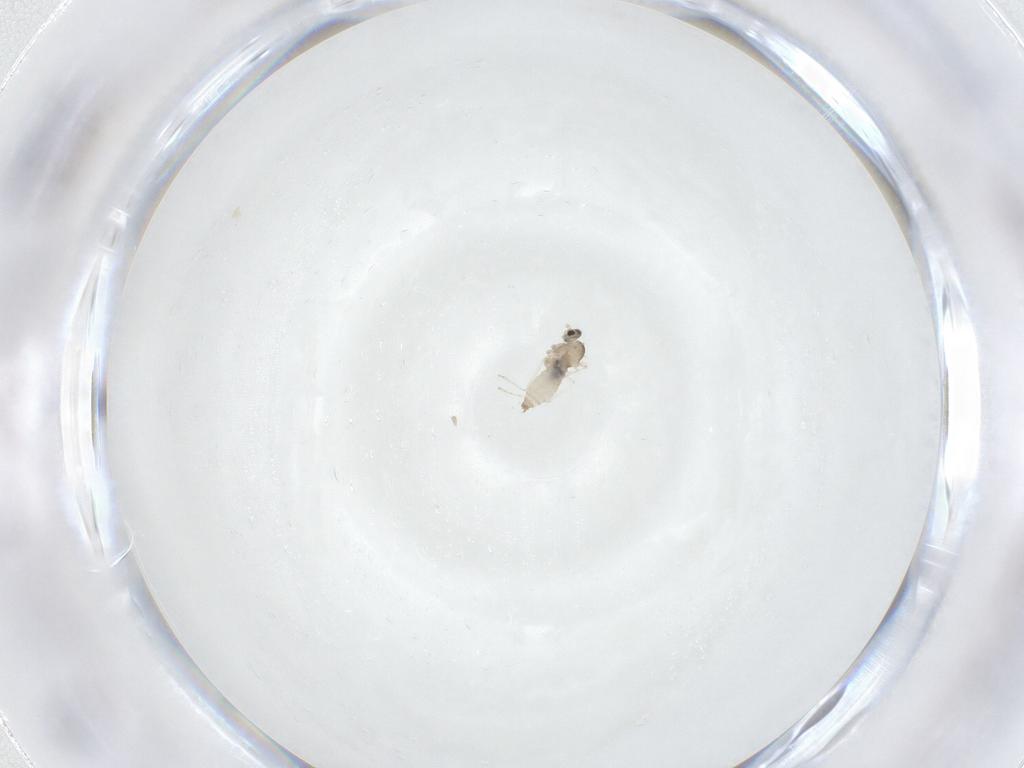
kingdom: Animalia
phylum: Arthropoda
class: Insecta
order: Diptera
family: Cecidomyiidae
